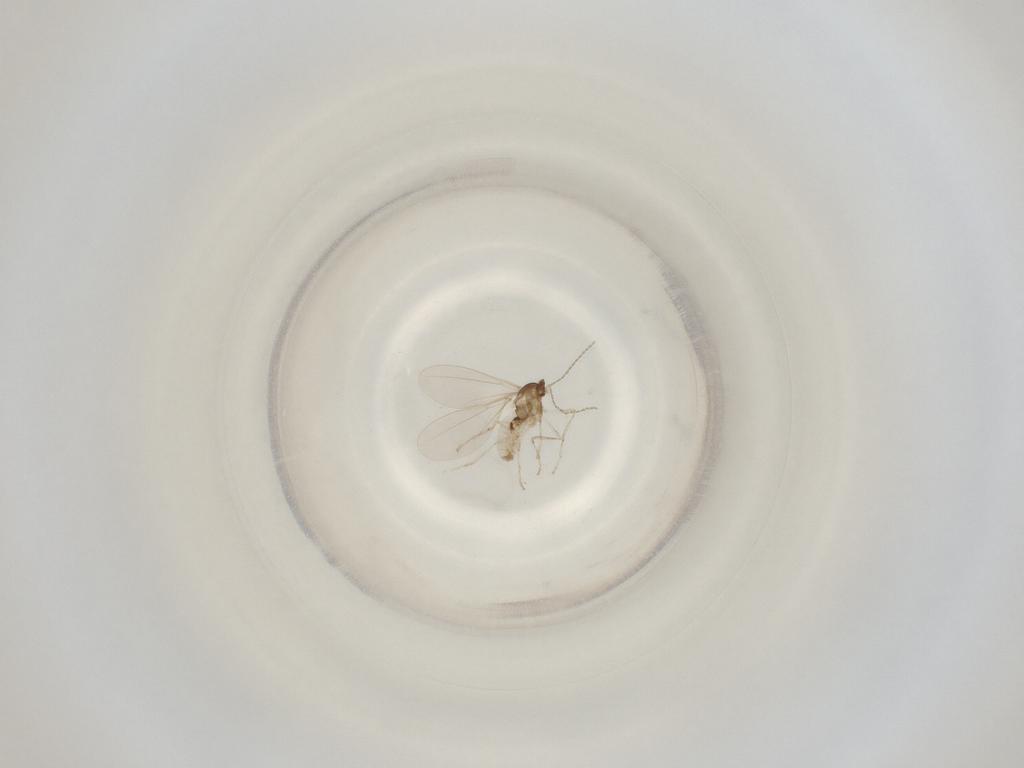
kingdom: Animalia
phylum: Arthropoda
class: Insecta
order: Diptera
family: Cecidomyiidae
